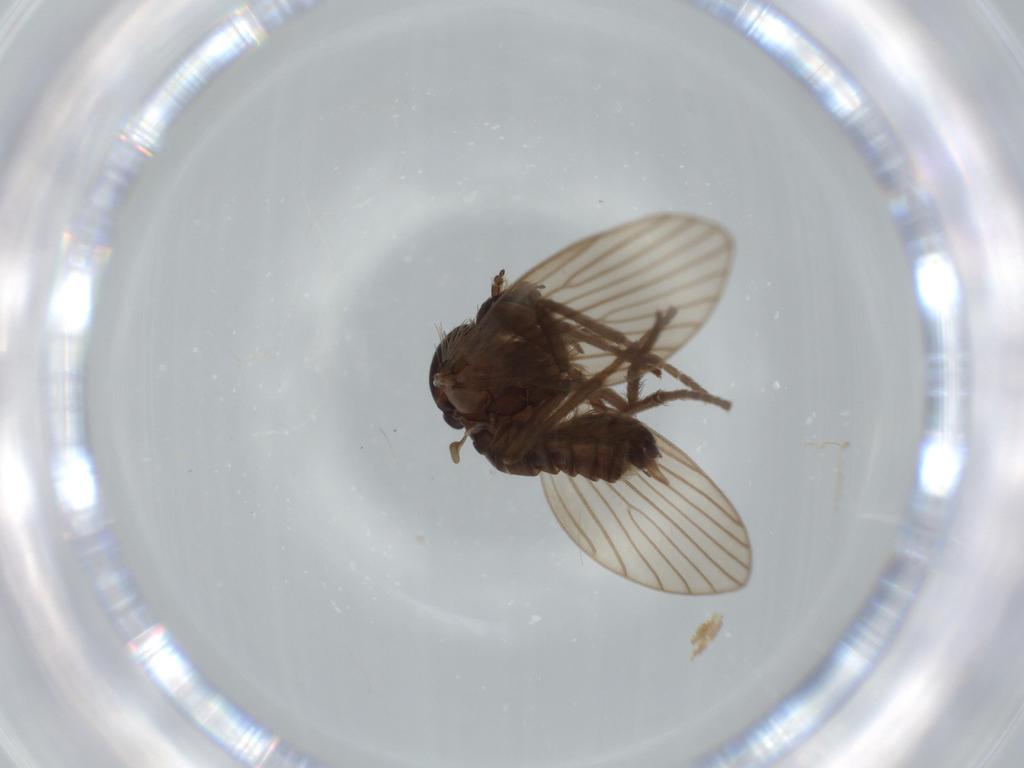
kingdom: Animalia
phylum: Arthropoda
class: Insecta
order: Diptera
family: Psychodidae
